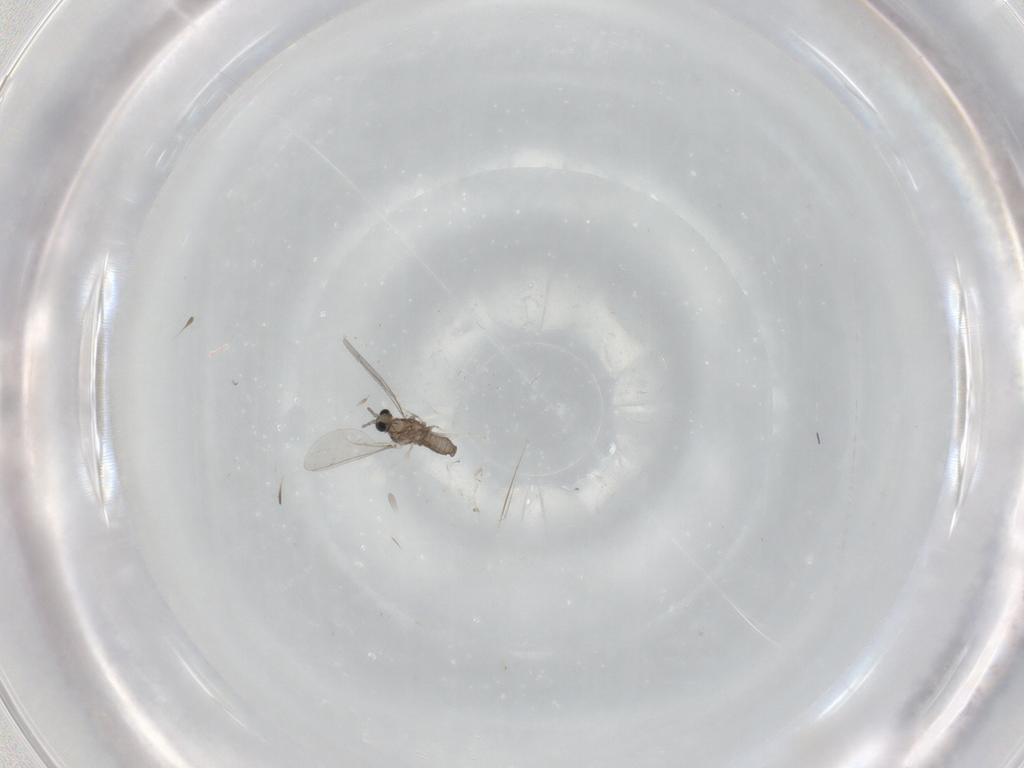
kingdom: Animalia
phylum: Arthropoda
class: Insecta
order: Diptera
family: Cecidomyiidae
